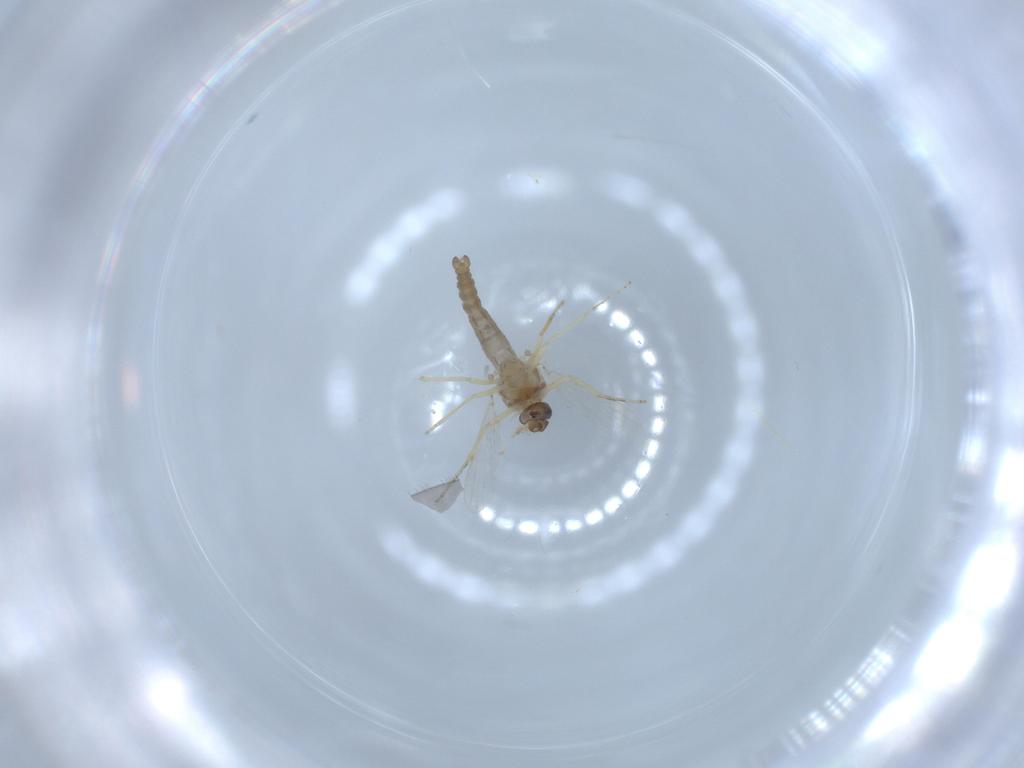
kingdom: Animalia
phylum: Arthropoda
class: Insecta
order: Diptera
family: Ceratopogonidae
